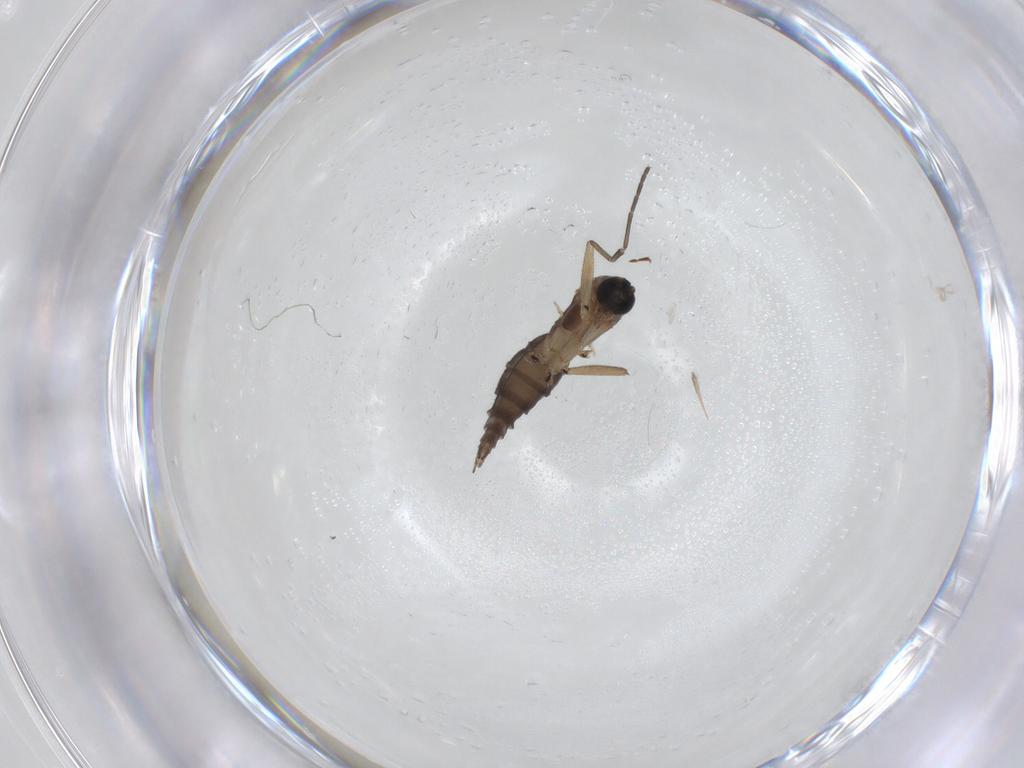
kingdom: Animalia
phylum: Arthropoda
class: Insecta
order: Diptera
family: Sciaridae
